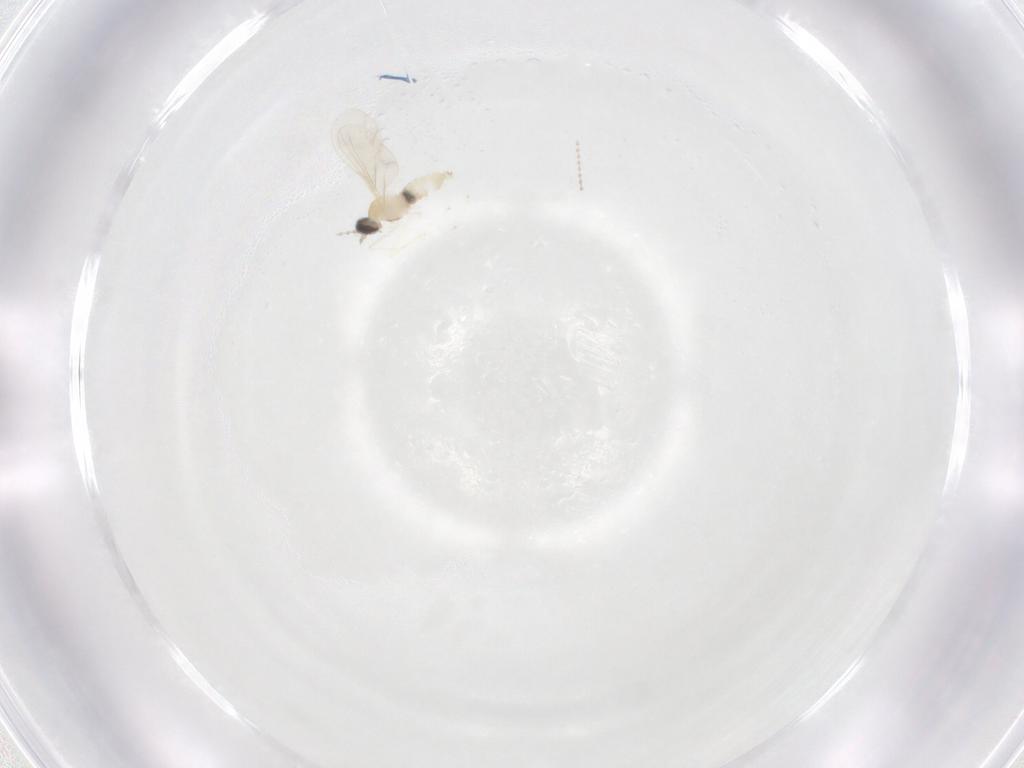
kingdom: Animalia
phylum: Arthropoda
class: Insecta
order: Diptera
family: Cecidomyiidae
